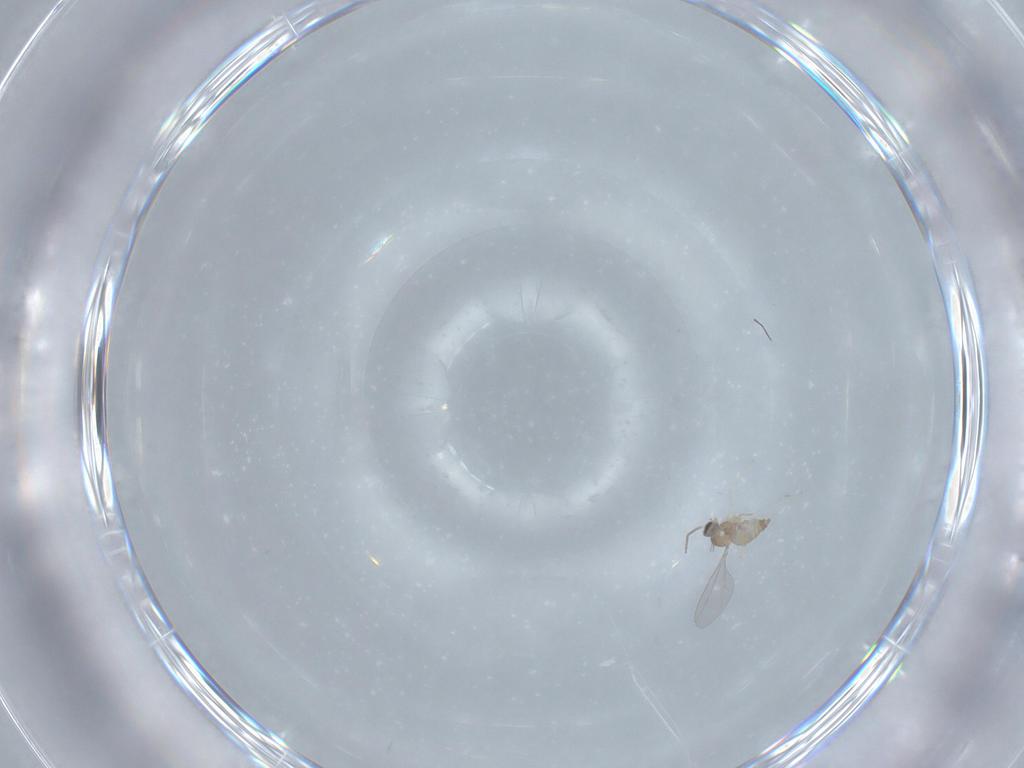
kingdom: Animalia
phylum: Arthropoda
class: Insecta
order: Diptera
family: Cecidomyiidae
